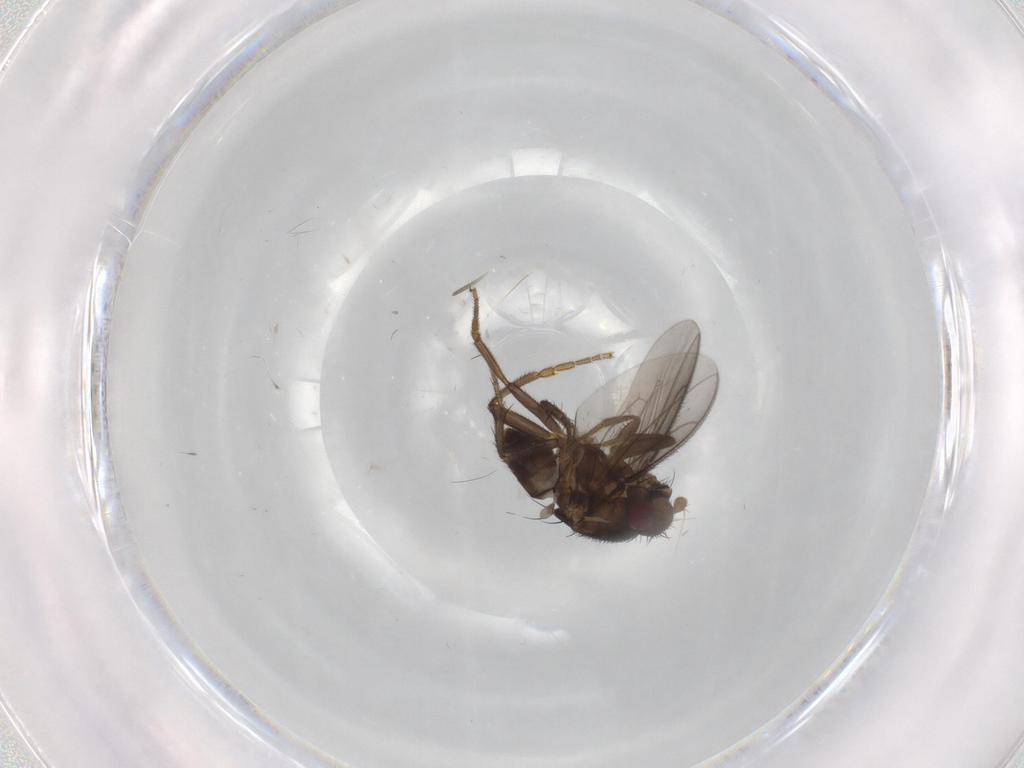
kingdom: Animalia
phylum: Arthropoda
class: Insecta
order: Diptera
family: Sphaeroceridae
